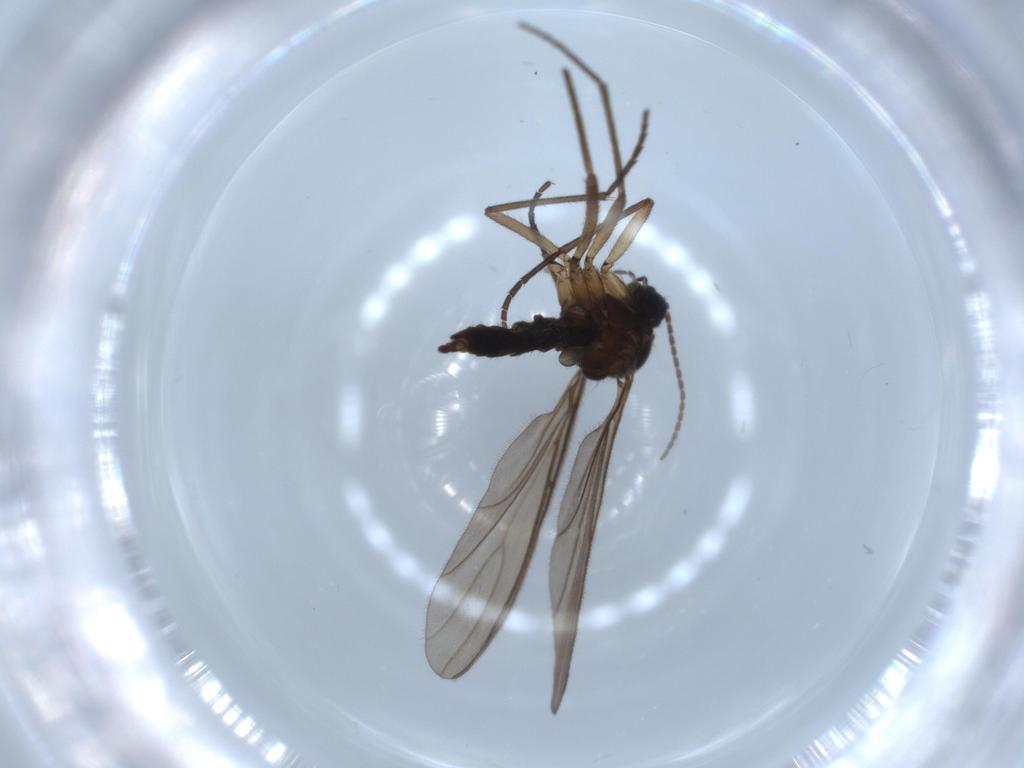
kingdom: Animalia
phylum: Arthropoda
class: Insecta
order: Diptera
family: Sciaridae
